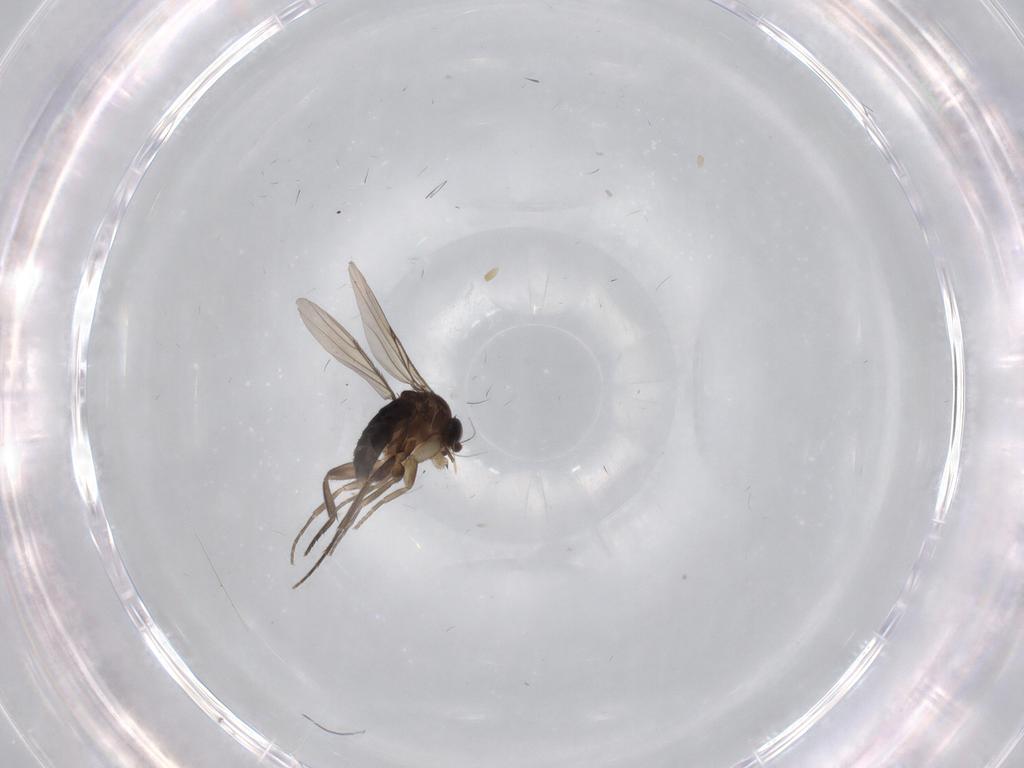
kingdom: Animalia
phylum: Arthropoda
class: Insecta
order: Diptera
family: Phoridae
